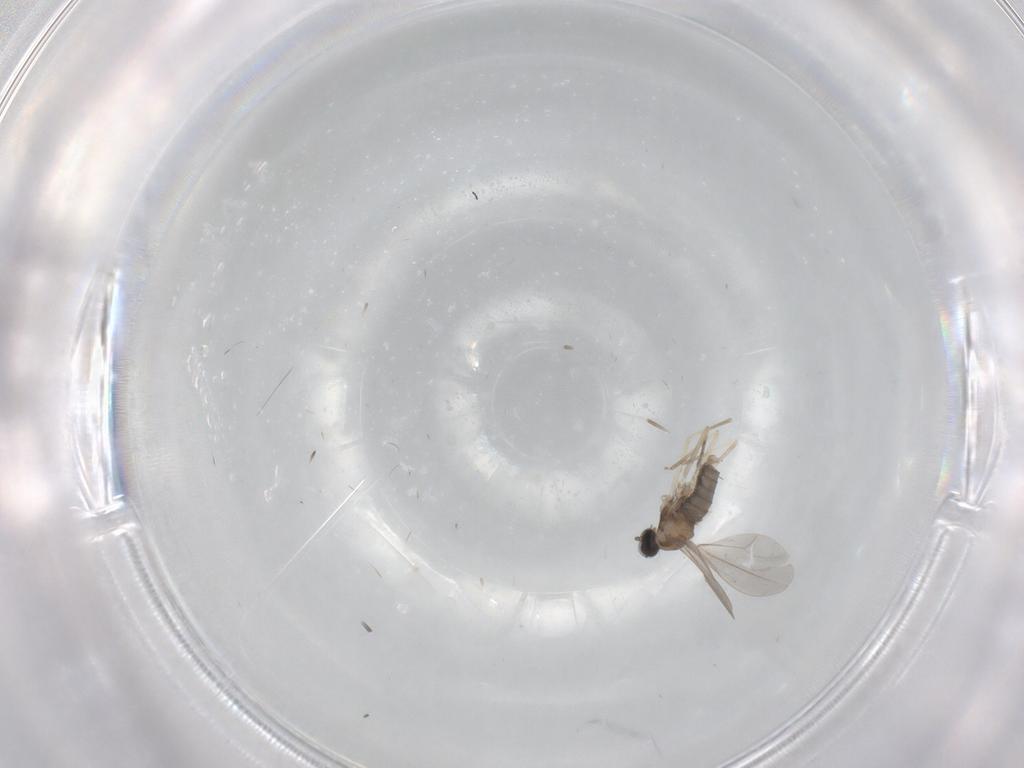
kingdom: Animalia
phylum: Arthropoda
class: Insecta
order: Diptera
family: Cecidomyiidae
